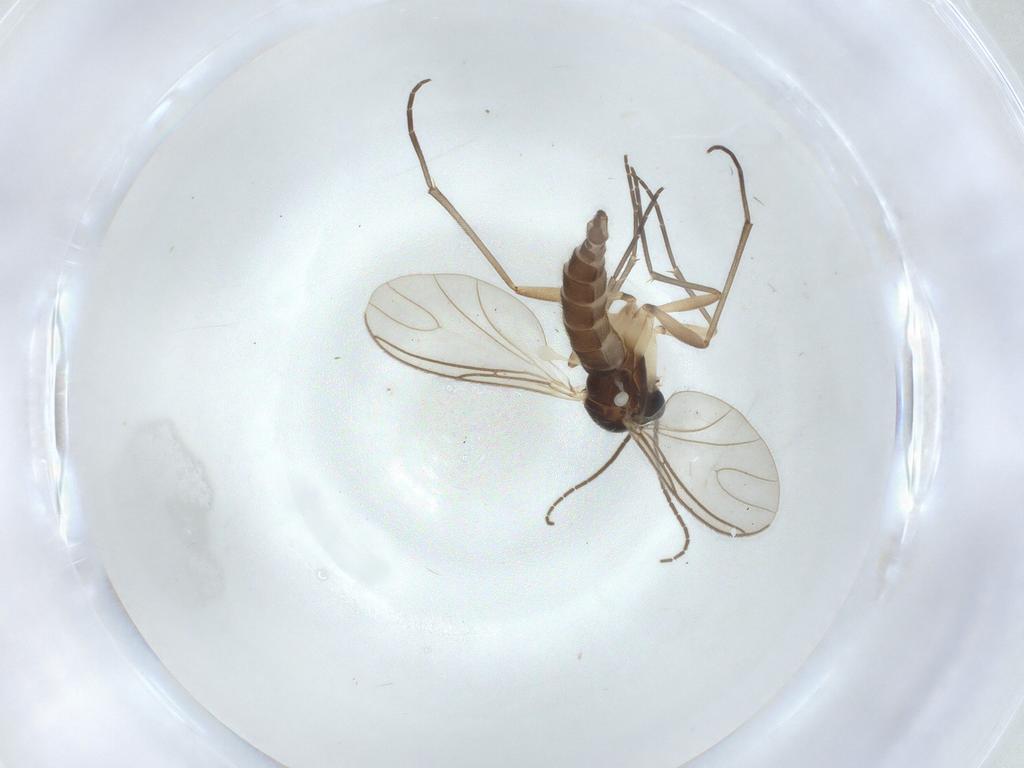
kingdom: Animalia
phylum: Arthropoda
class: Insecta
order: Diptera
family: Sciaridae
